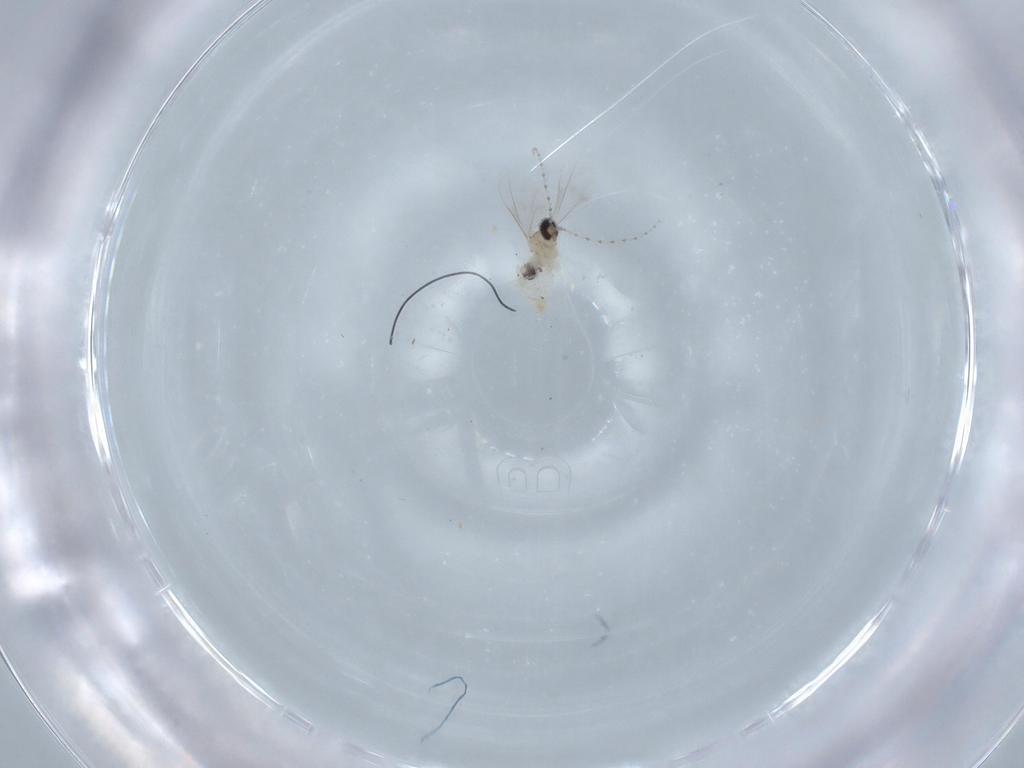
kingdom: Animalia
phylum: Arthropoda
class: Insecta
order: Diptera
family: Cecidomyiidae
